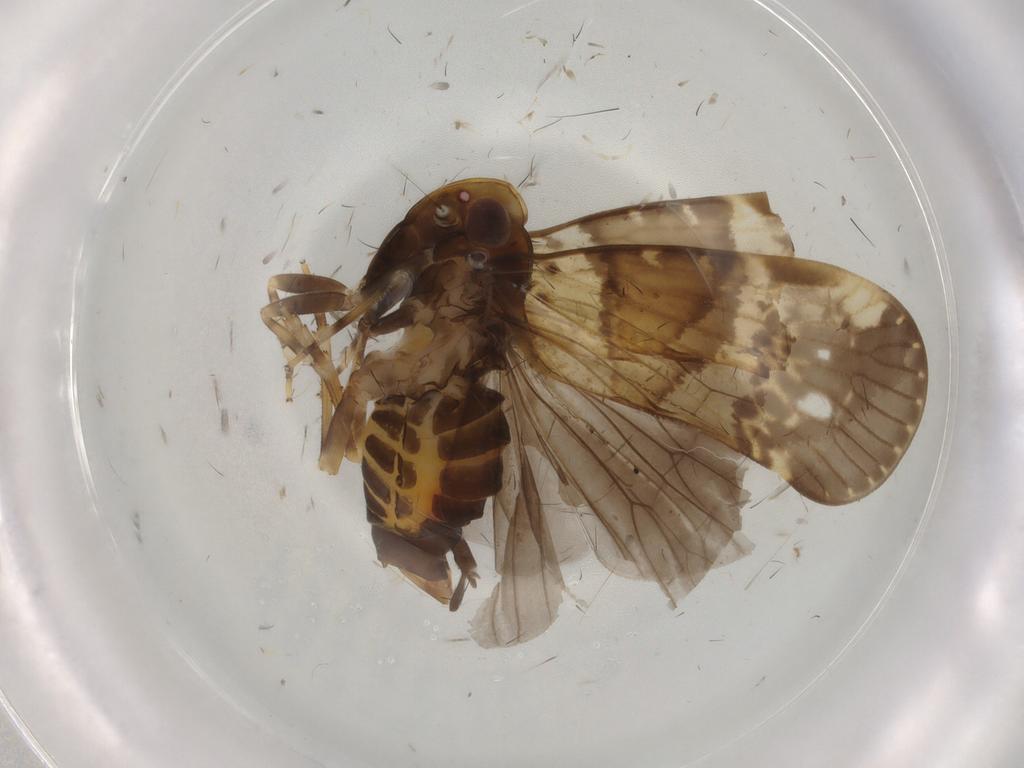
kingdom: Animalia
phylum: Arthropoda
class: Insecta
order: Hemiptera
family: Cixiidae
